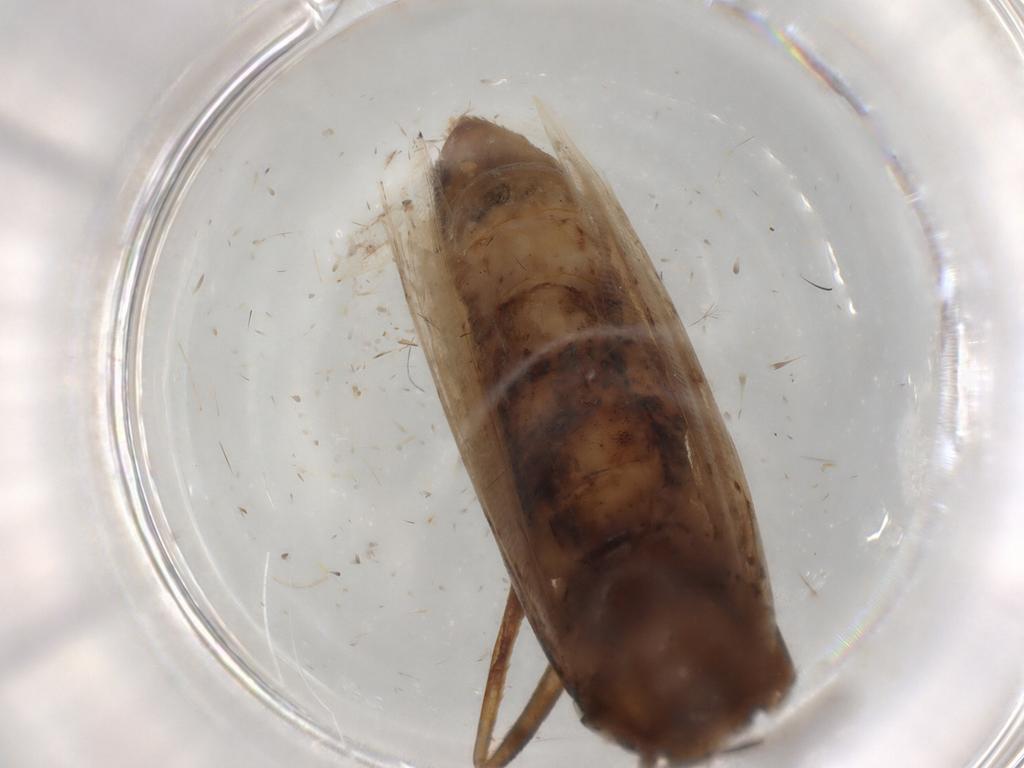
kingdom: Animalia
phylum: Arthropoda
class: Insecta
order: Lepidoptera
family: Pyralidae
